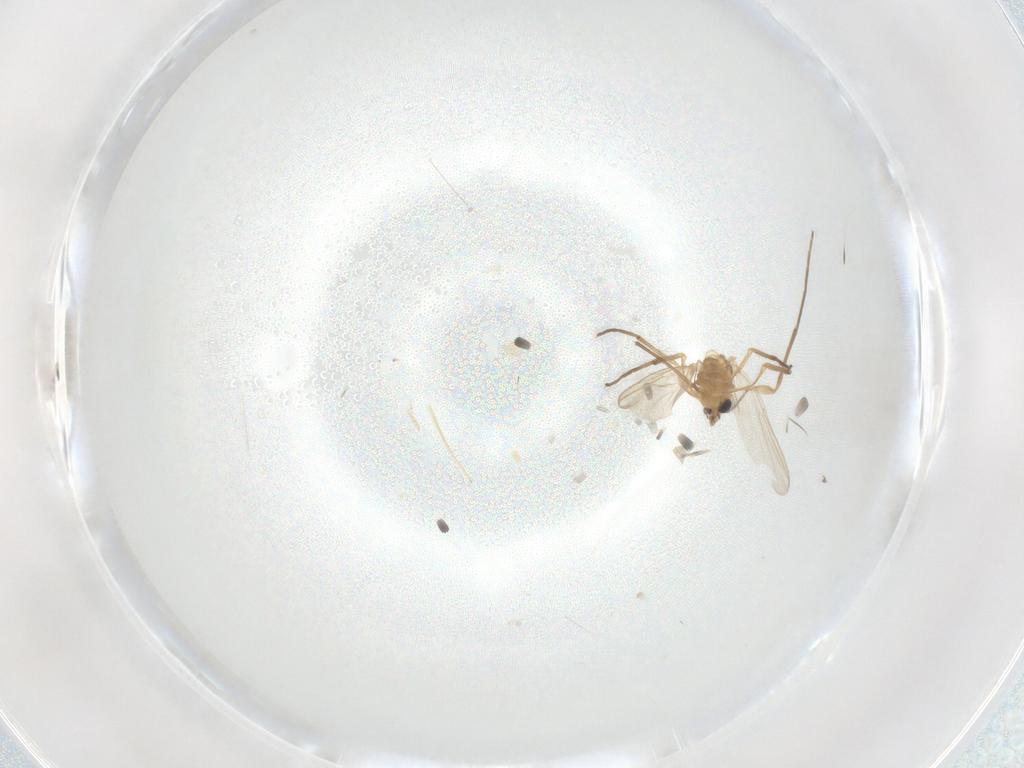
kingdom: Animalia
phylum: Arthropoda
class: Insecta
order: Diptera
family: Chironomidae
